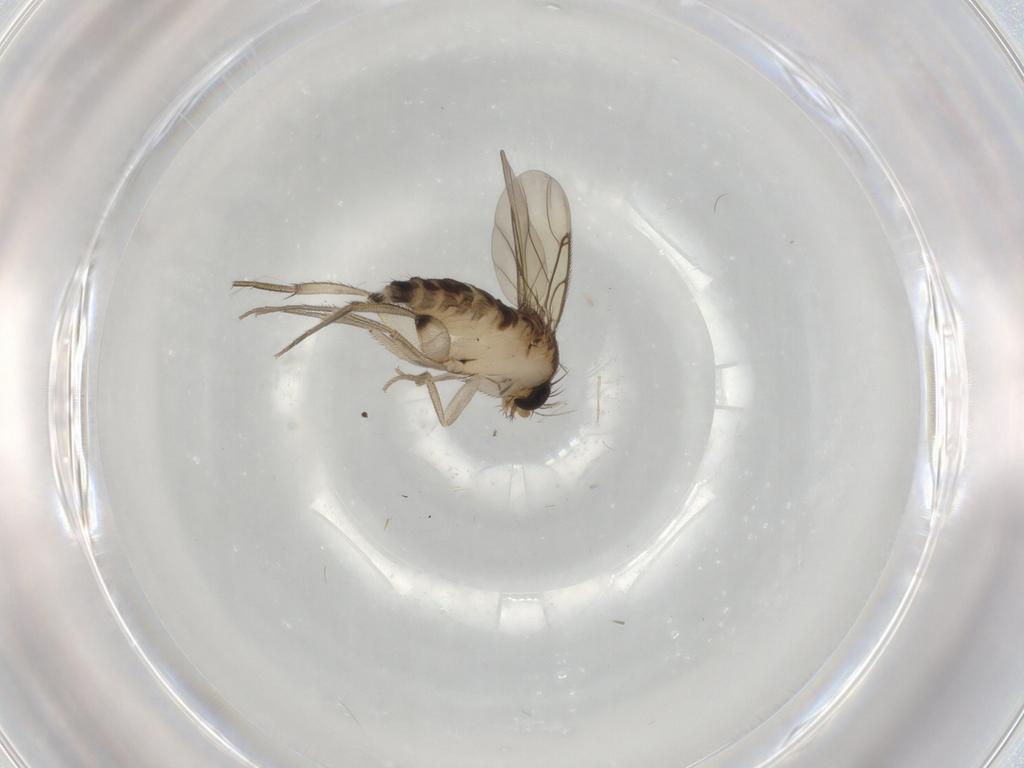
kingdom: Animalia
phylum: Arthropoda
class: Insecta
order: Diptera
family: Phoridae
